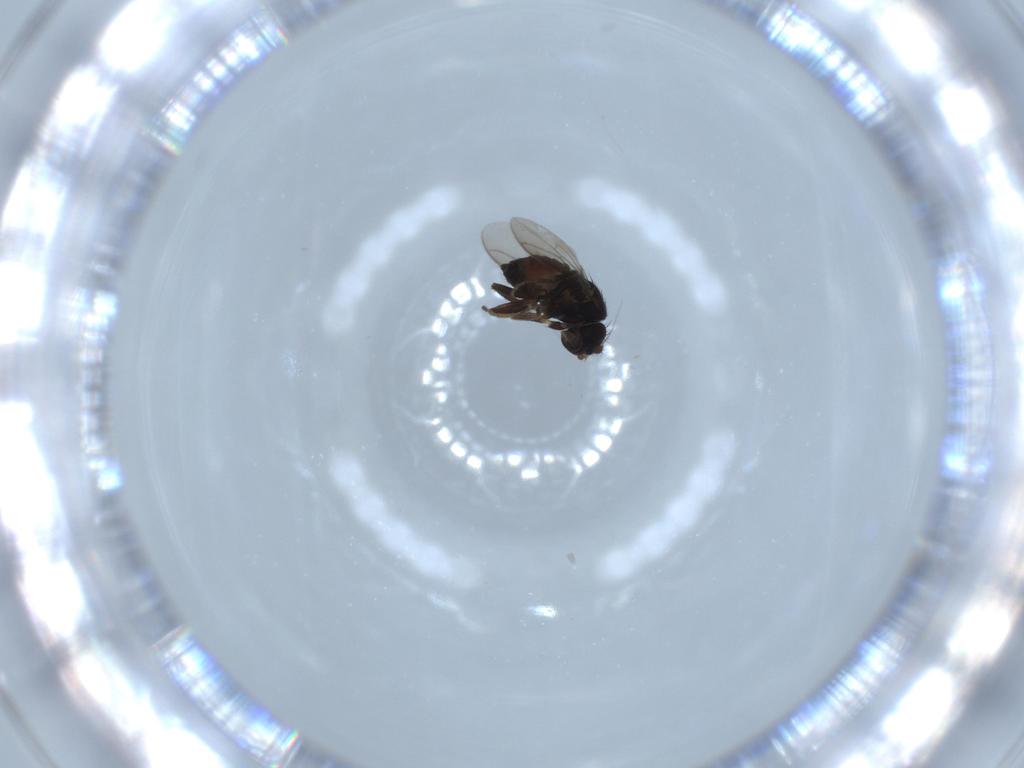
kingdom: Animalia
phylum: Arthropoda
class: Insecta
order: Diptera
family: Sphaeroceridae
